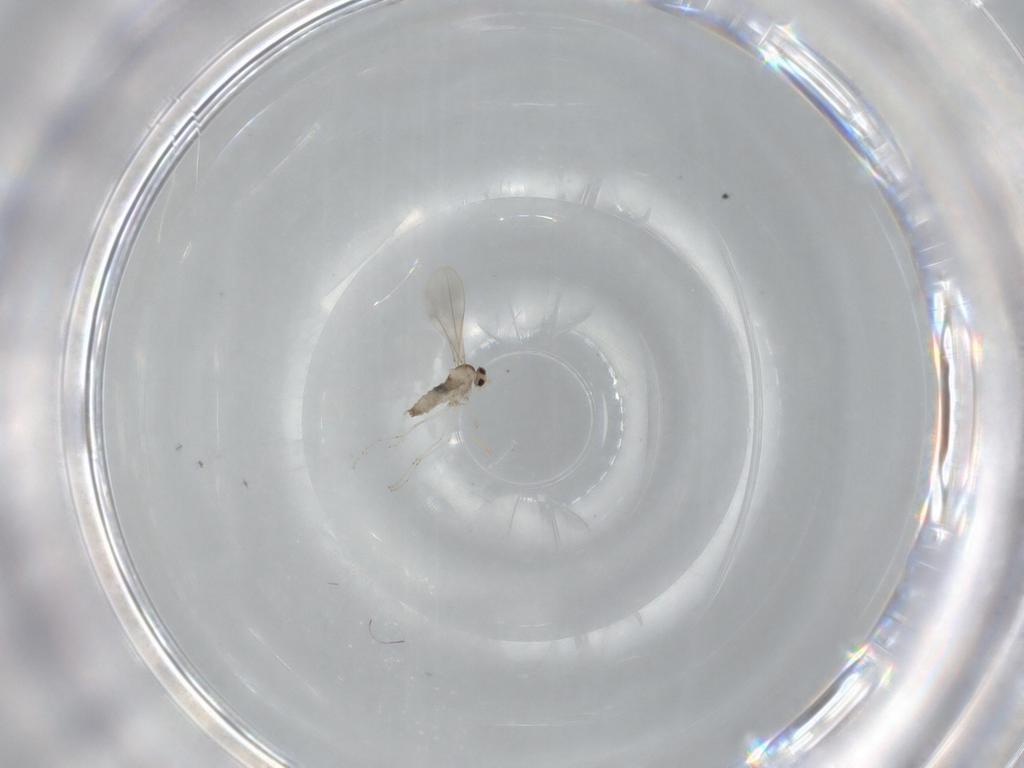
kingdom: Animalia
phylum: Arthropoda
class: Insecta
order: Diptera
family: Cecidomyiidae
